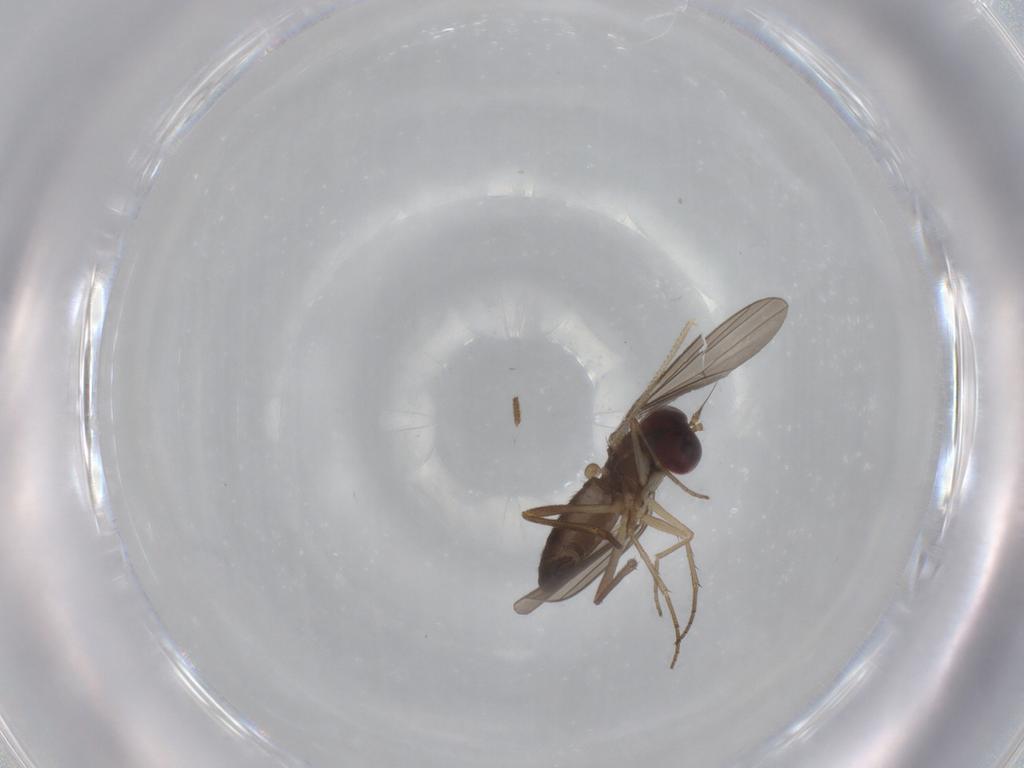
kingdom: Animalia
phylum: Arthropoda
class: Insecta
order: Diptera
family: Dolichopodidae
